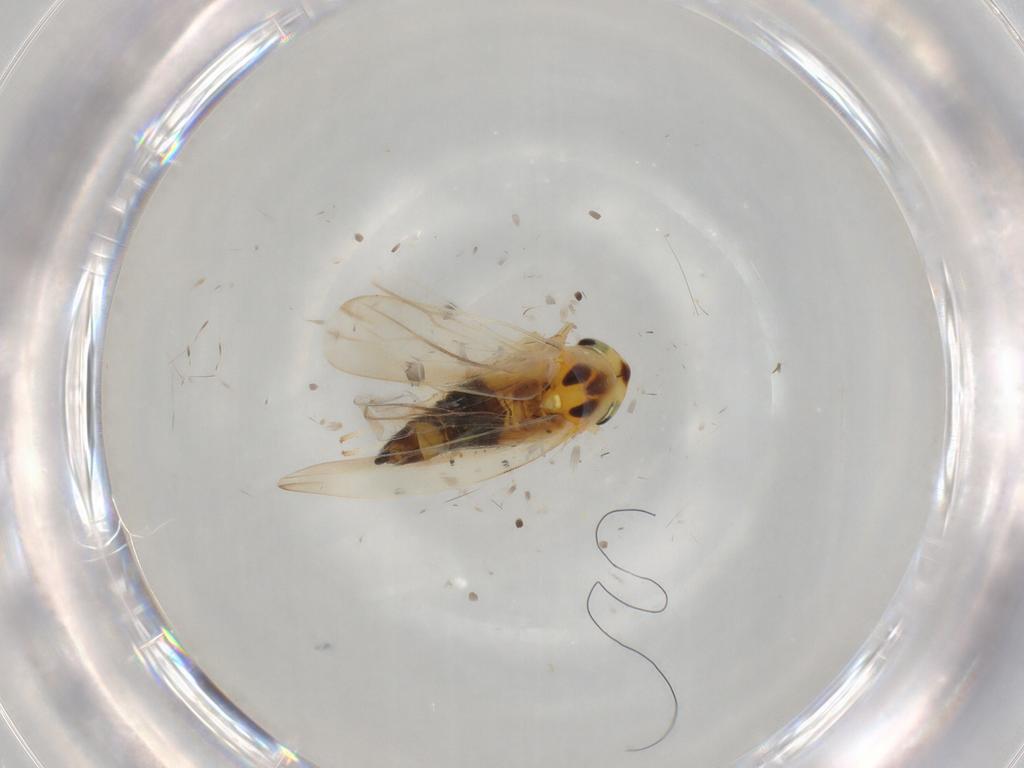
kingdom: Animalia
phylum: Arthropoda
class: Insecta
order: Hemiptera
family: Cicadellidae
